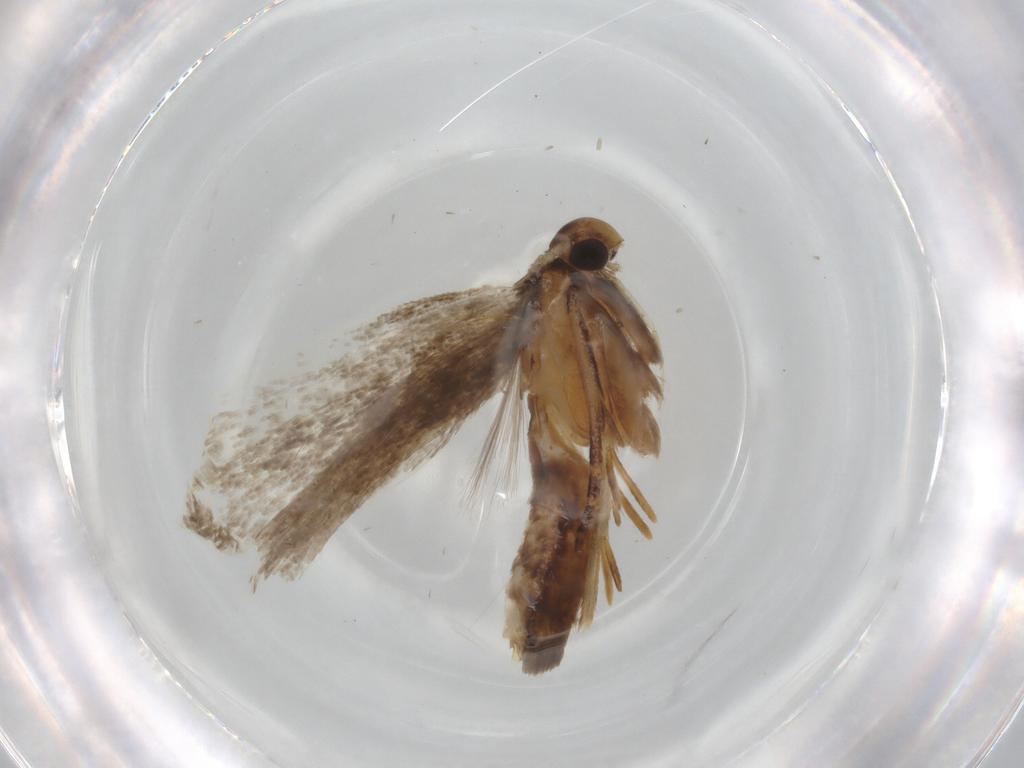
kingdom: Animalia
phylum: Arthropoda
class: Insecta
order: Lepidoptera
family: Gelechiidae
